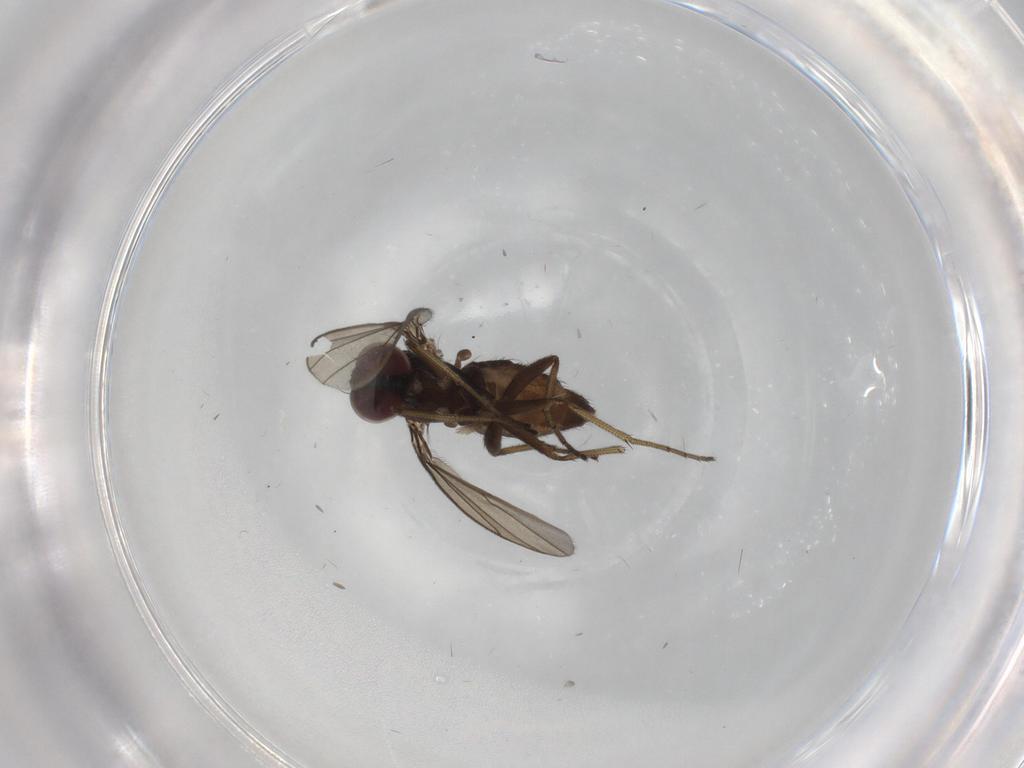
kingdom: Animalia
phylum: Arthropoda
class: Insecta
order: Diptera
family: Dolichopodidae
